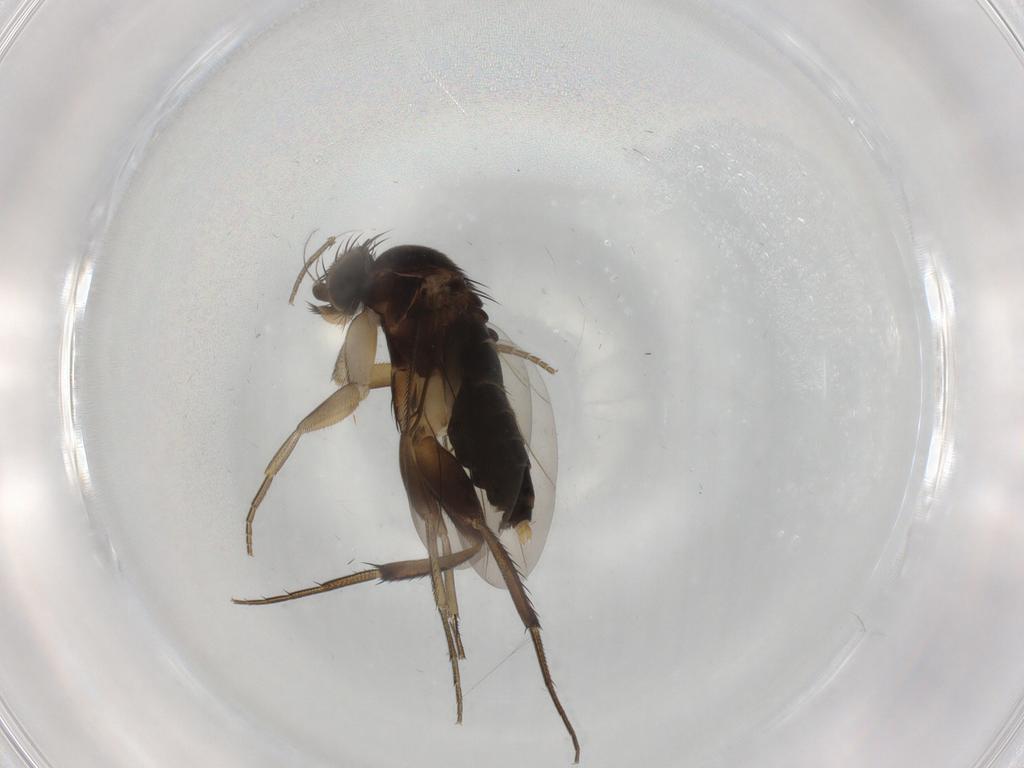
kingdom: Animalia
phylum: Arthropoda
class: Insecta
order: Diptera
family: Phoridae
